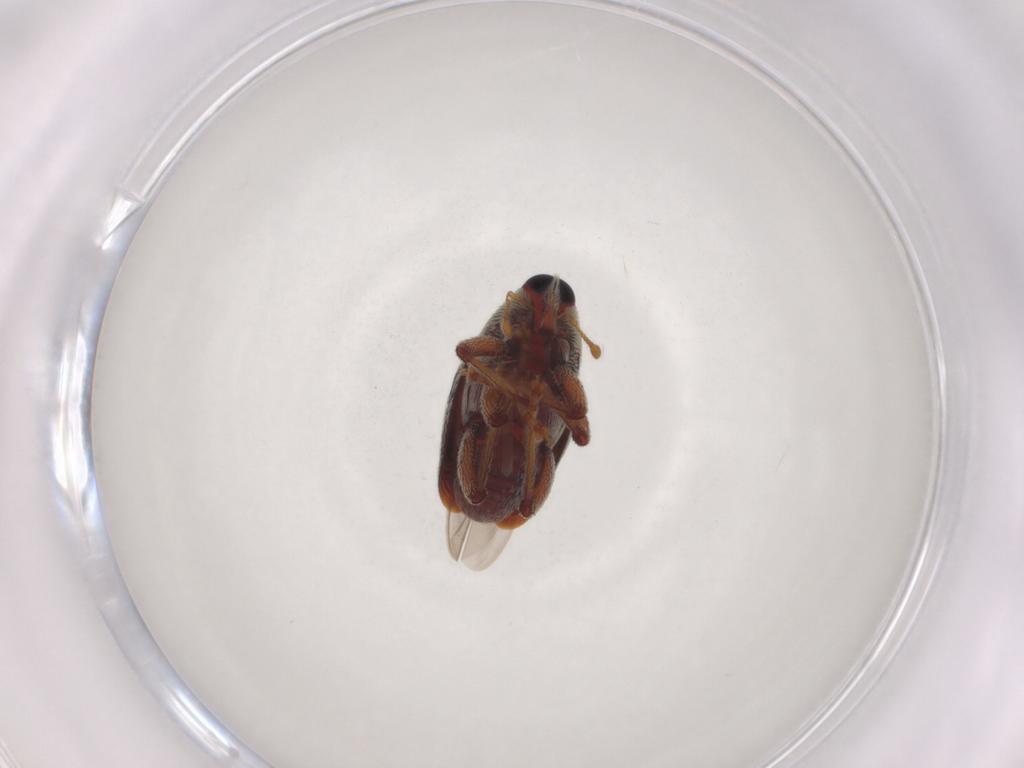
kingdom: Animalia
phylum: Arthropoda
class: Insecta
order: Coleoptera
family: Curculionidae
